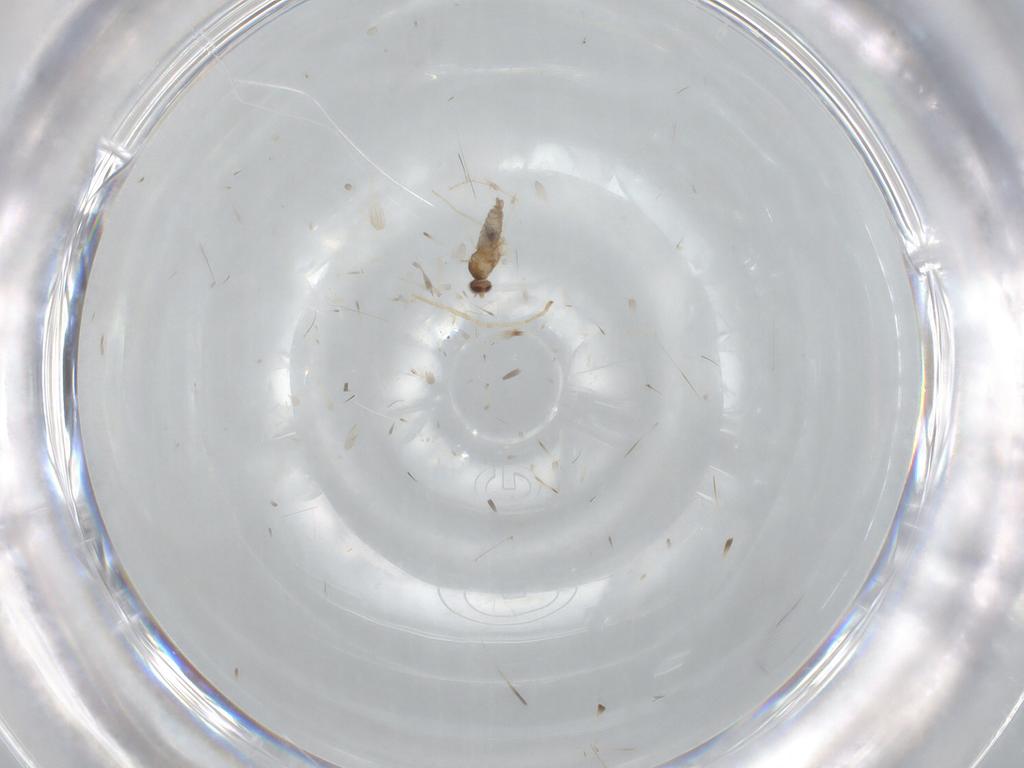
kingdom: Animalia
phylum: Arthropoda
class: Insecta
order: Diptera
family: Cecidomyiidae
